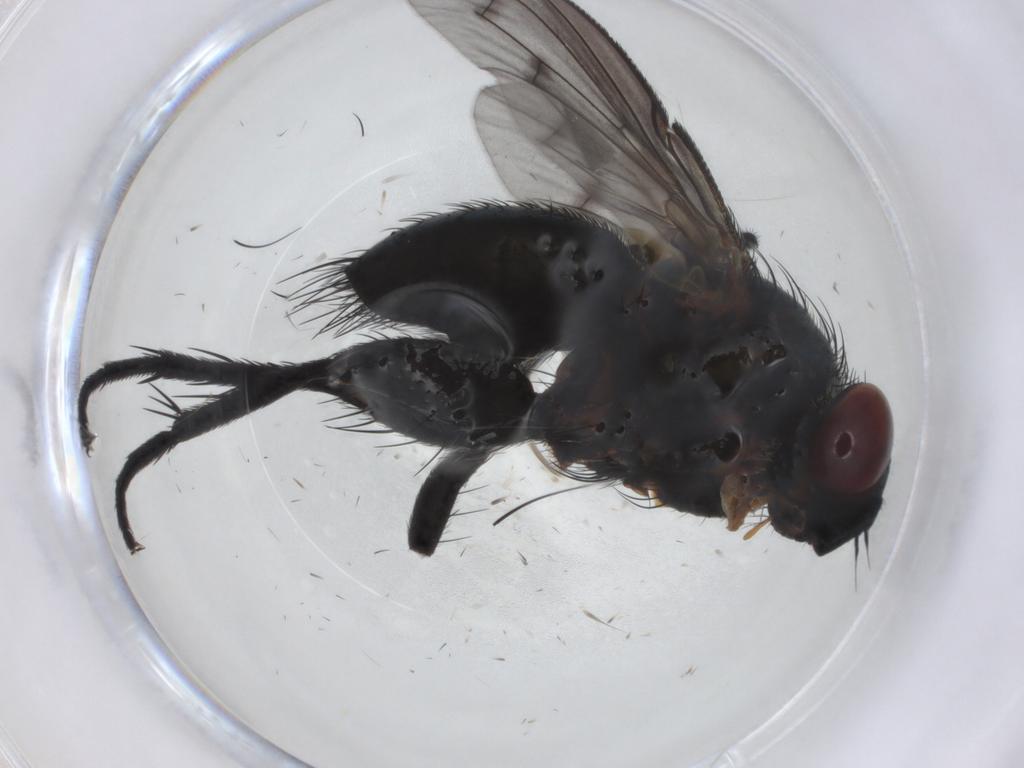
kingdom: Animalia
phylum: Arthropoda
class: Insecta
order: Diptera
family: Tachinidae
